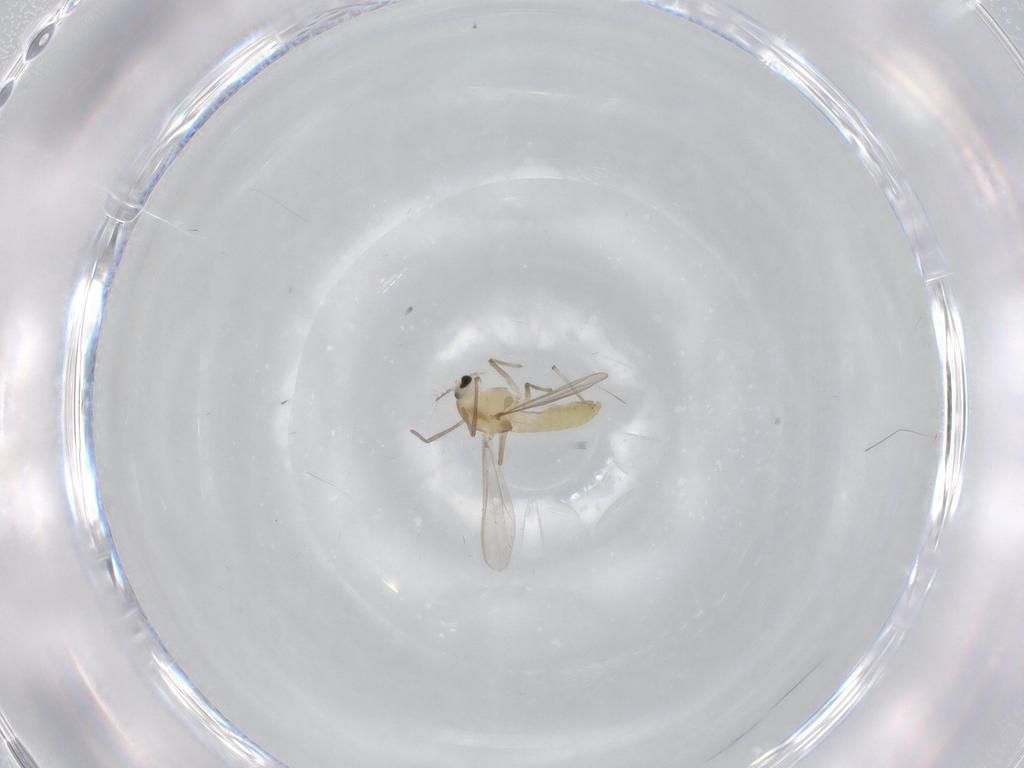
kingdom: Animalia
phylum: Arthropoda
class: Insecta
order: Diptera
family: Chironomidae
